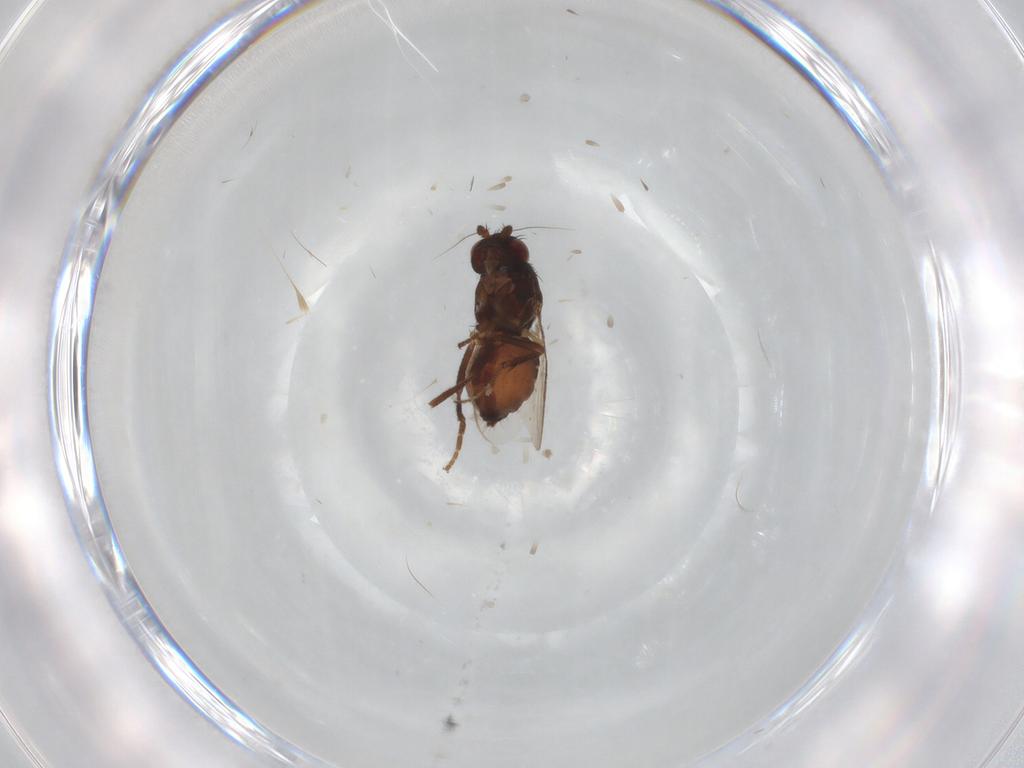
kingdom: Animalia
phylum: Arthropoda
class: Insecta
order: Diptera
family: Sphaeroceridae
